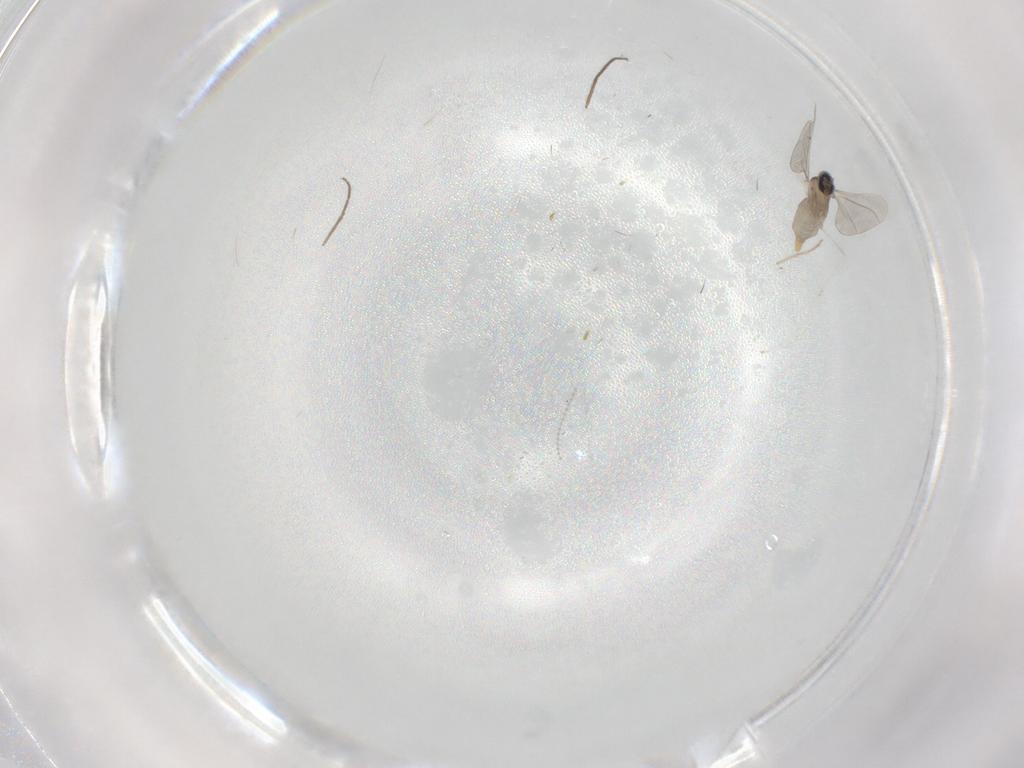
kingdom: Animalia
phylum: Arthropoda
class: Insecta
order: Diptera
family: Cecidomyiidae
